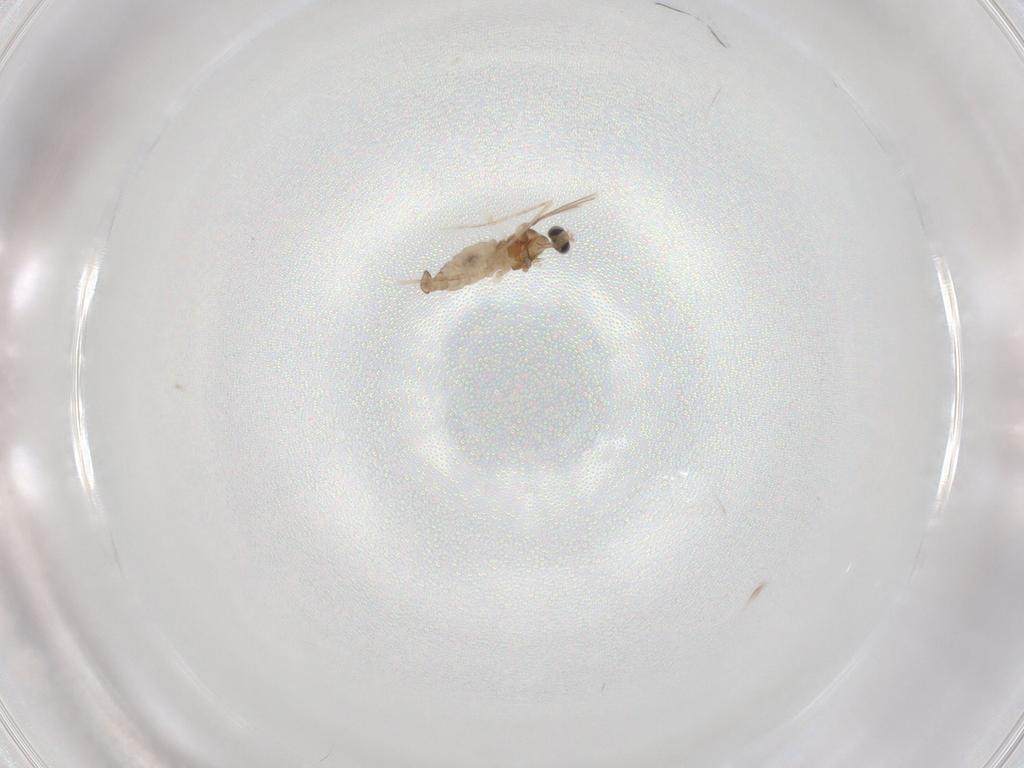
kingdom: Animalia
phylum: Arthropoda
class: Insecta
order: Diptera
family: Cecidomyiidae
